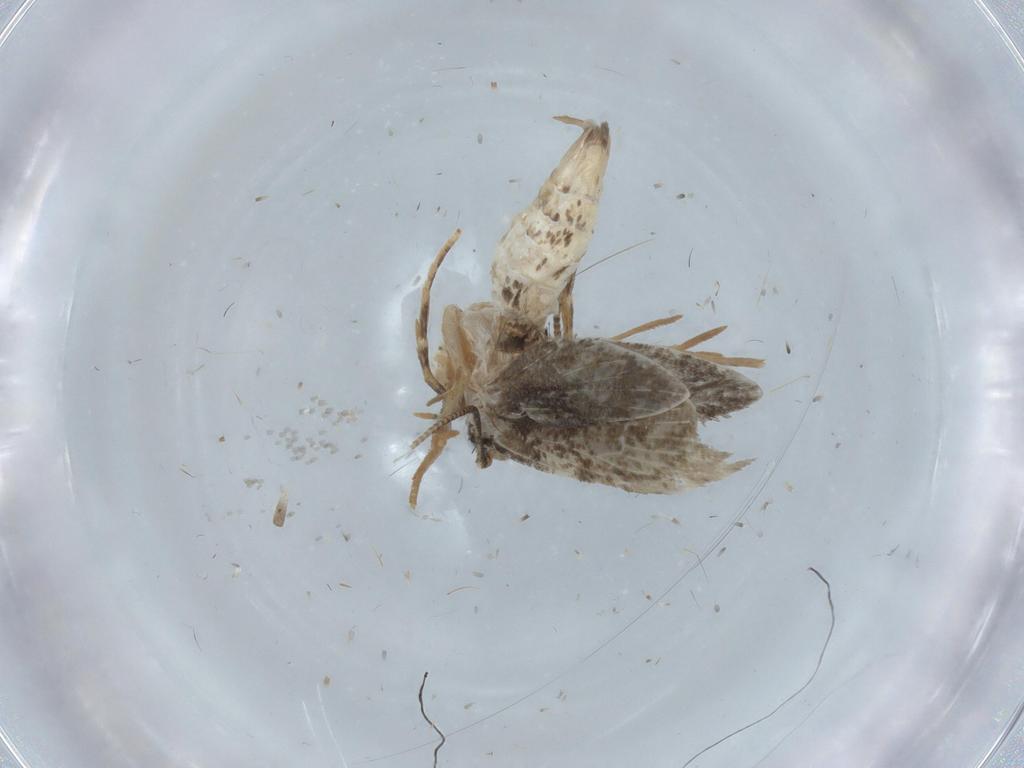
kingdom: Animalia
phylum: Arthropoda
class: Insecta
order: Lepidoptera
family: Tineidae
